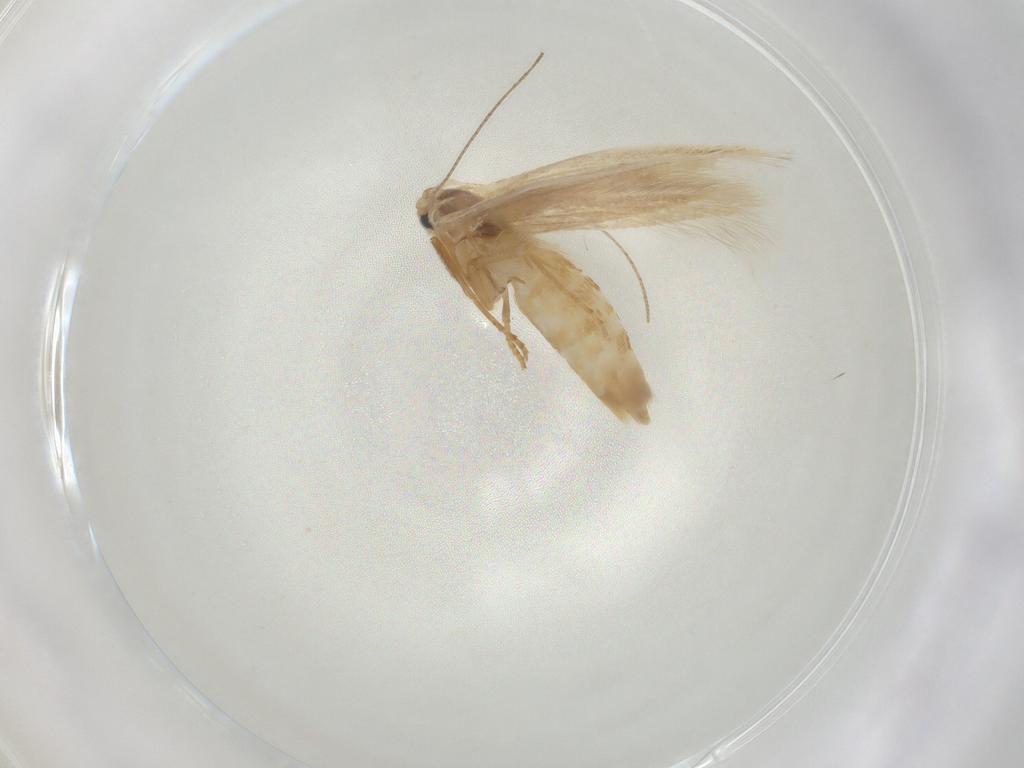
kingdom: Animalia
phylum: Arthropoda
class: Insecta
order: Lepidoptera
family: Bucculatricidae
